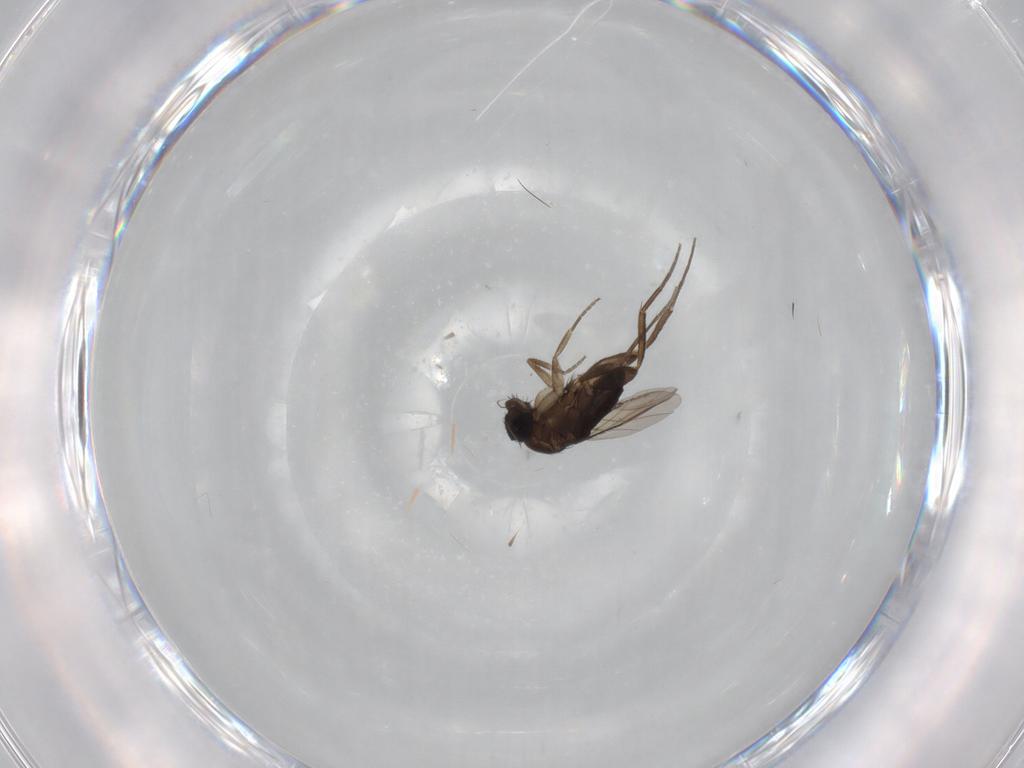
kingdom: Animalia
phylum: Arthropoda
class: Insecta
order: Diptera
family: Phoridae
